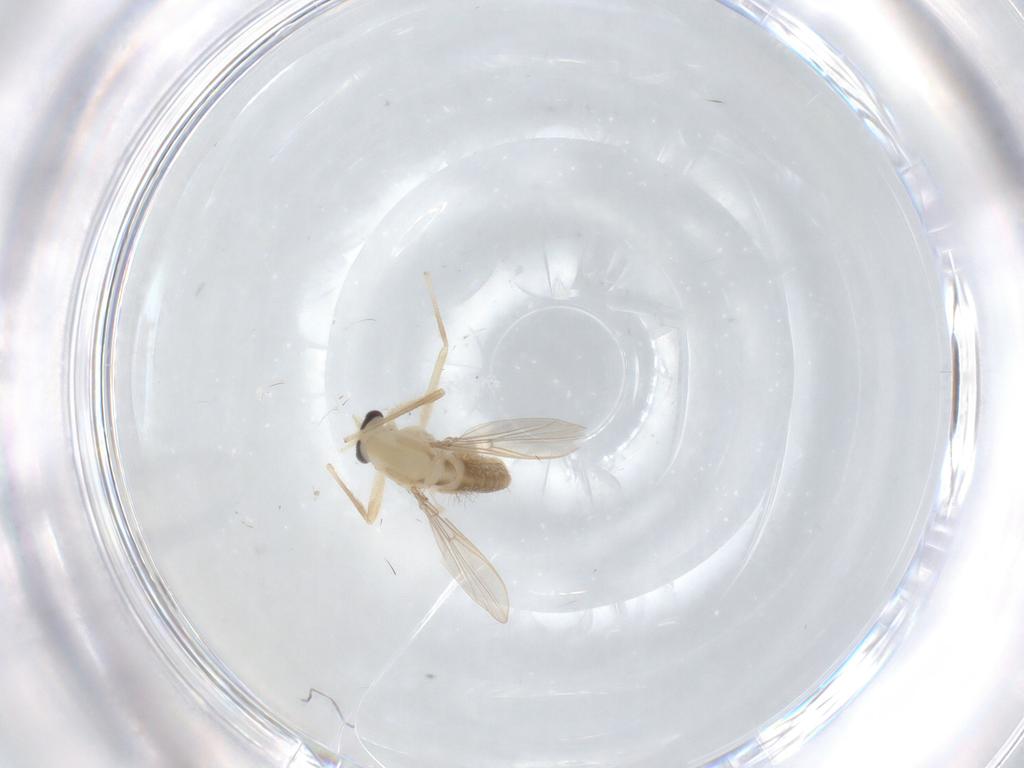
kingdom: Animalia
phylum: Arthropoda
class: Insecta
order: Diptera
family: Chironomidae
